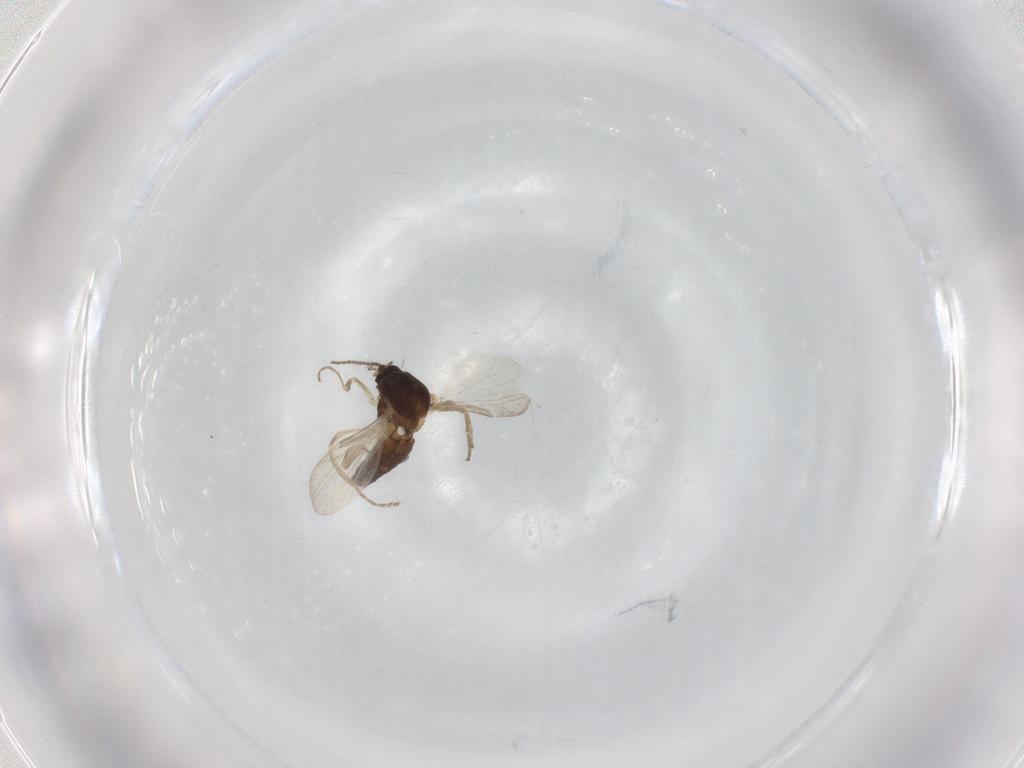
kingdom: Animalia
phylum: Arthropoda
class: Insecta
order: Diptera
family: Ceratopogonidae
